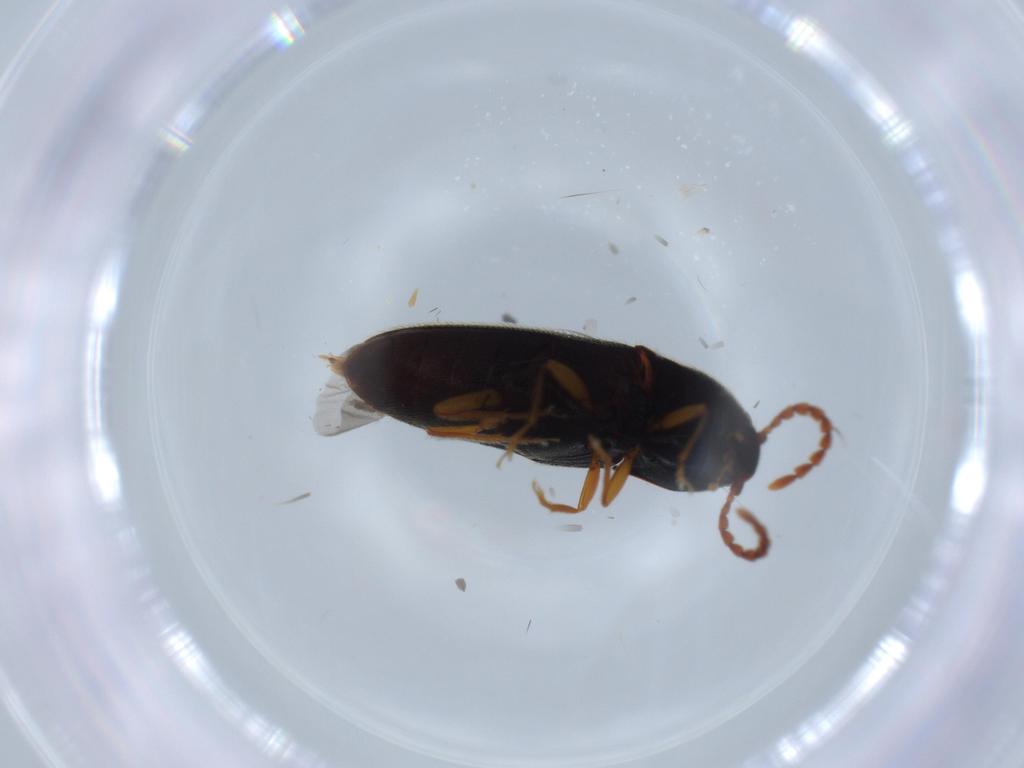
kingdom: Animalia
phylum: Arthropoda
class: Insecta
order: Coleoptera
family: Elateridae
